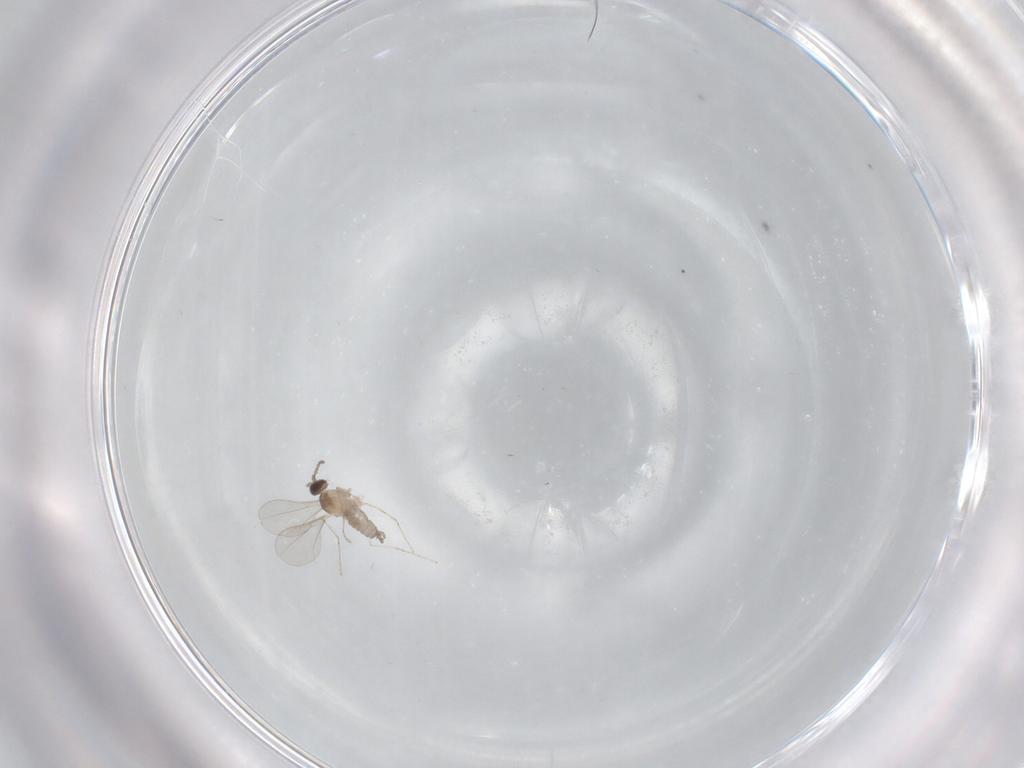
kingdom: Animalia
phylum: Arthropoda
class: Insecta
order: Diptera
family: Cecidomyiidae
